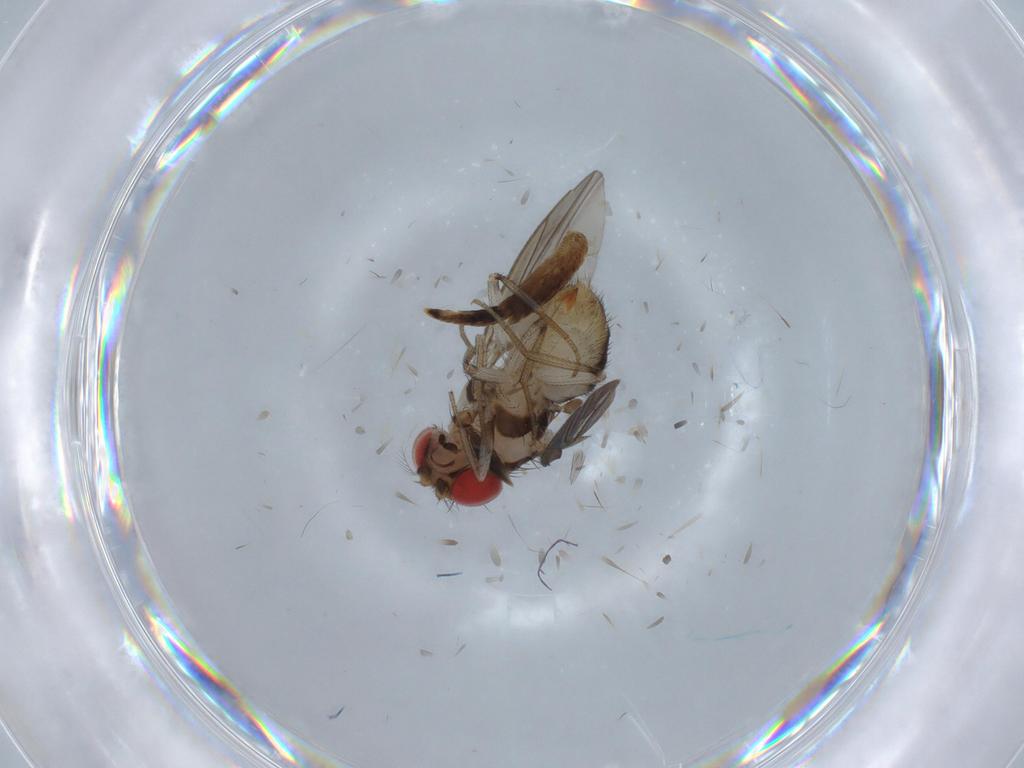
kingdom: Animalia
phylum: Arthropoda
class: Insecta
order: Diptera
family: Drosophilidae
